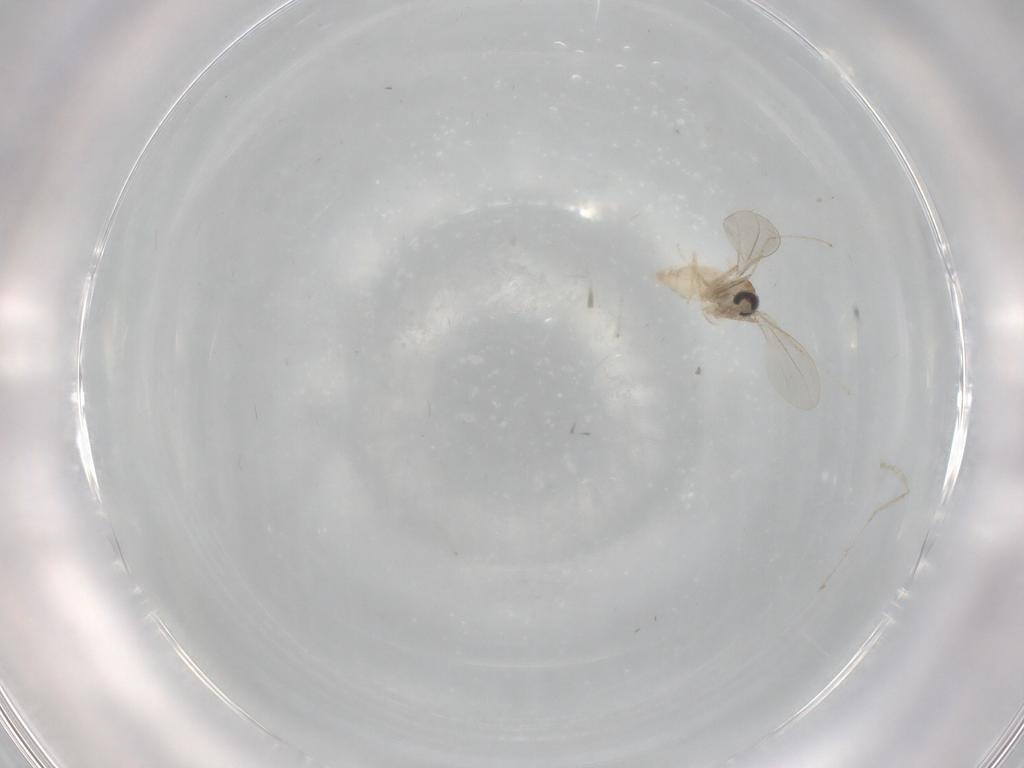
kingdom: Animalia
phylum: Arthropoda
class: Insecta
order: Diptera
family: Cecidomyiidae
